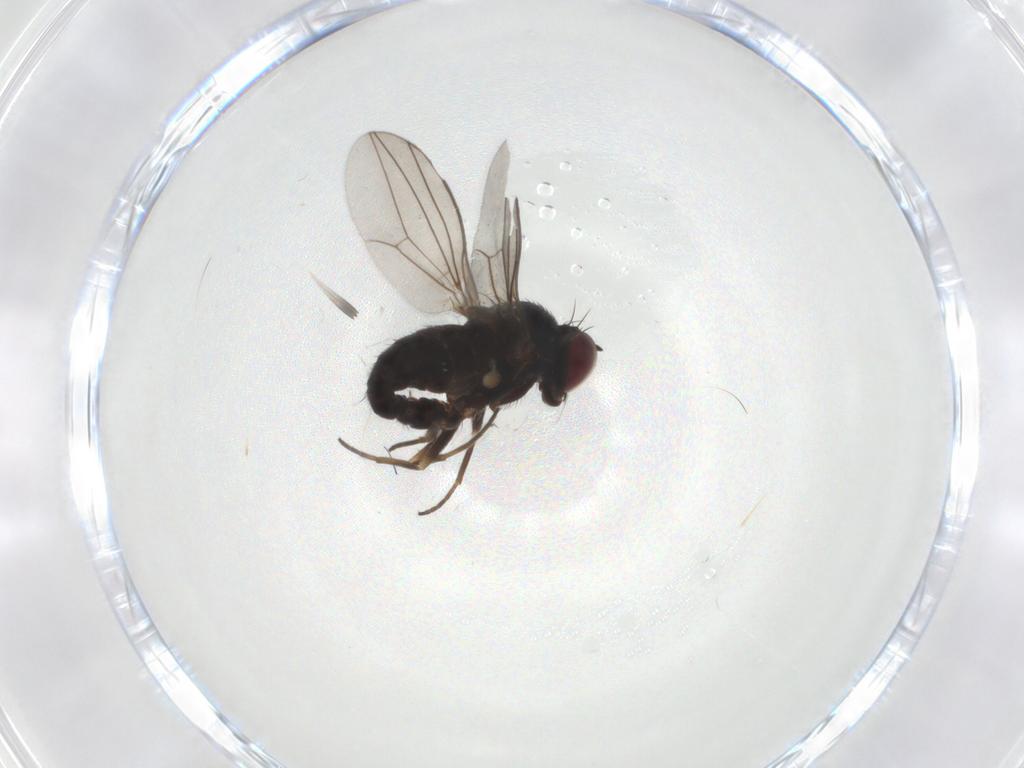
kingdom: Animalia
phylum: Arthropoda
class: Insecta
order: Diptera
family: Dolichopodidae
